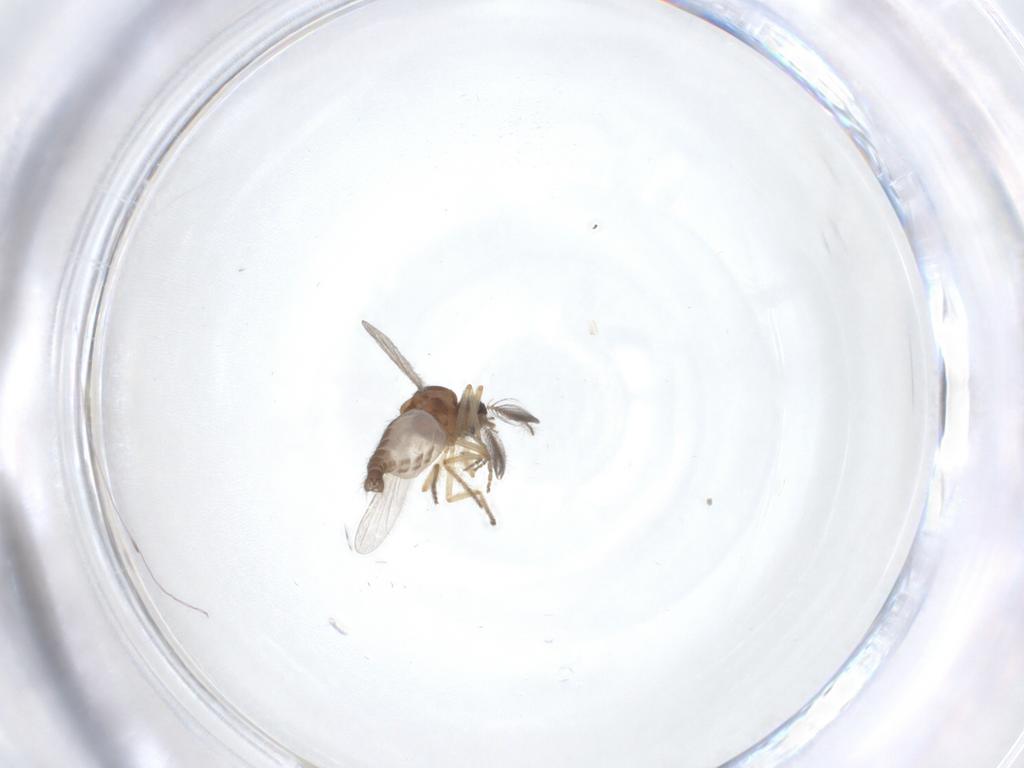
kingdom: Animalia
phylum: Arthropoda
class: Insecta
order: Diptera
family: Ceratopogonidae
